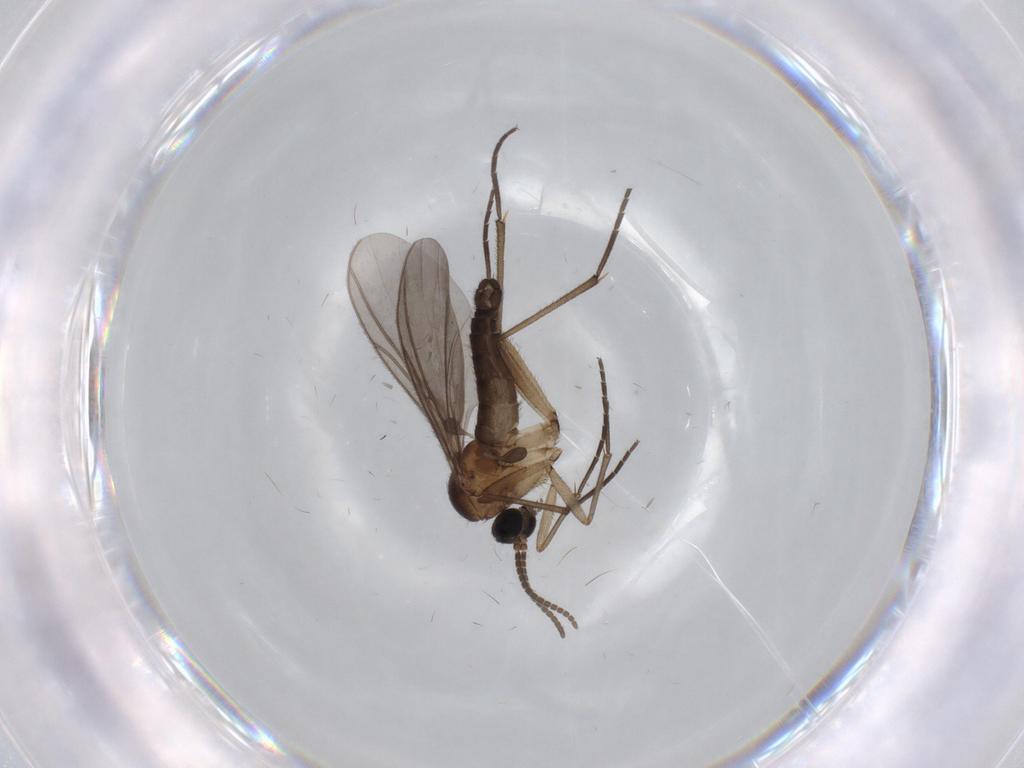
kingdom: Animalia
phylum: Arthropoda
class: Insecta
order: Diptera
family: Sciaridae
